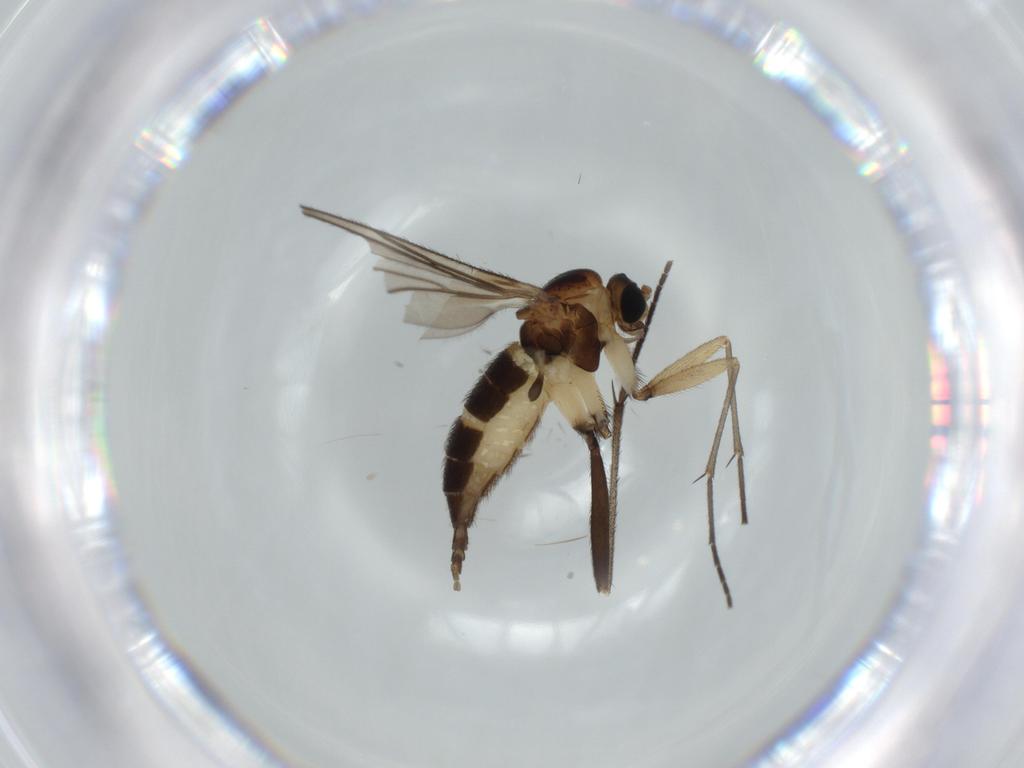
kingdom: Animalia
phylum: Arthropoda
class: Insecta
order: Diptera
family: Sciaridae
